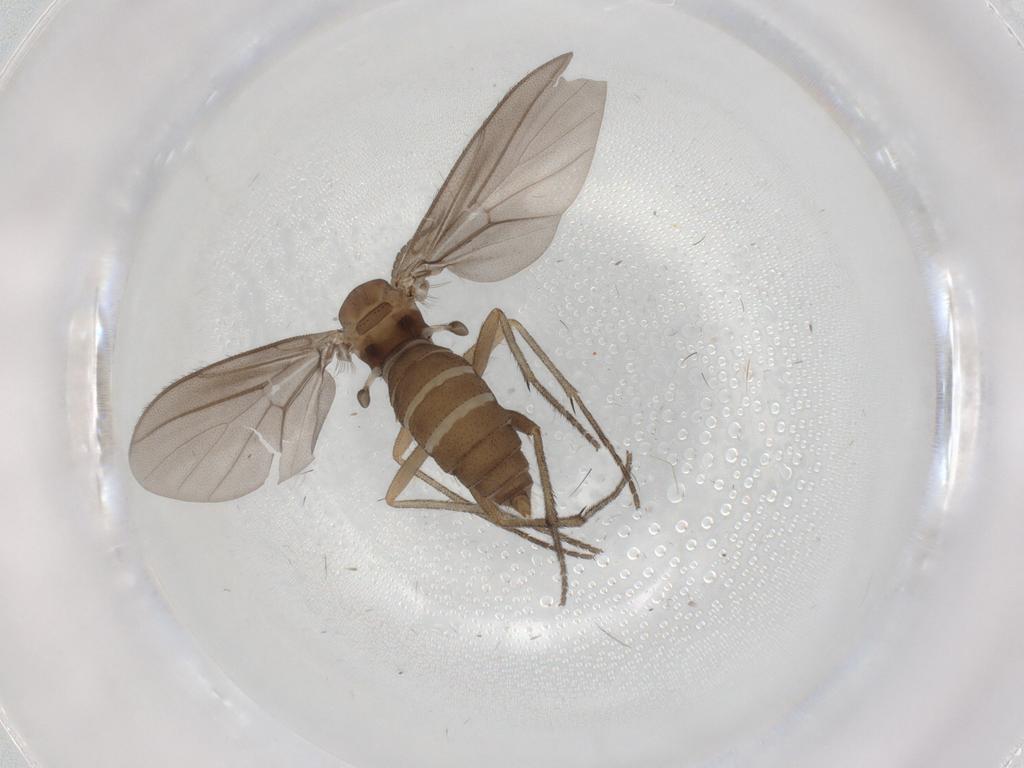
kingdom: Animalia
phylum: Arthropoda
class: Insecta
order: Diptera
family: Diadocidiidae
